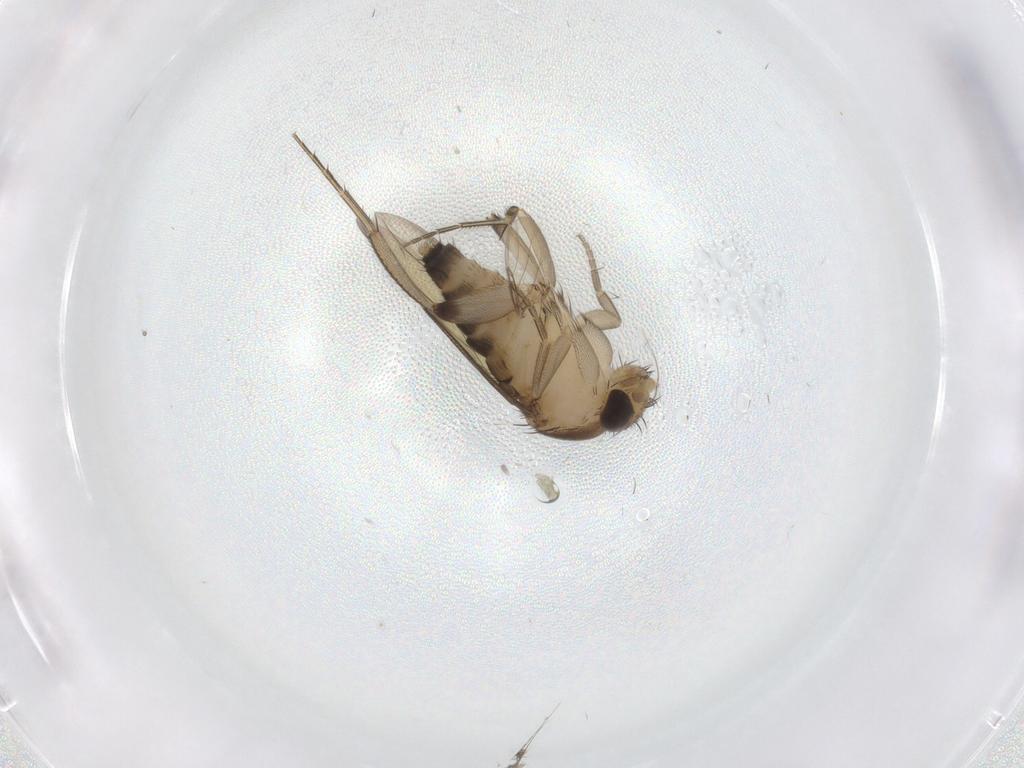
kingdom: Animalia
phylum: Arthropoda
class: Insecta
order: Diptera
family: Phoridae
